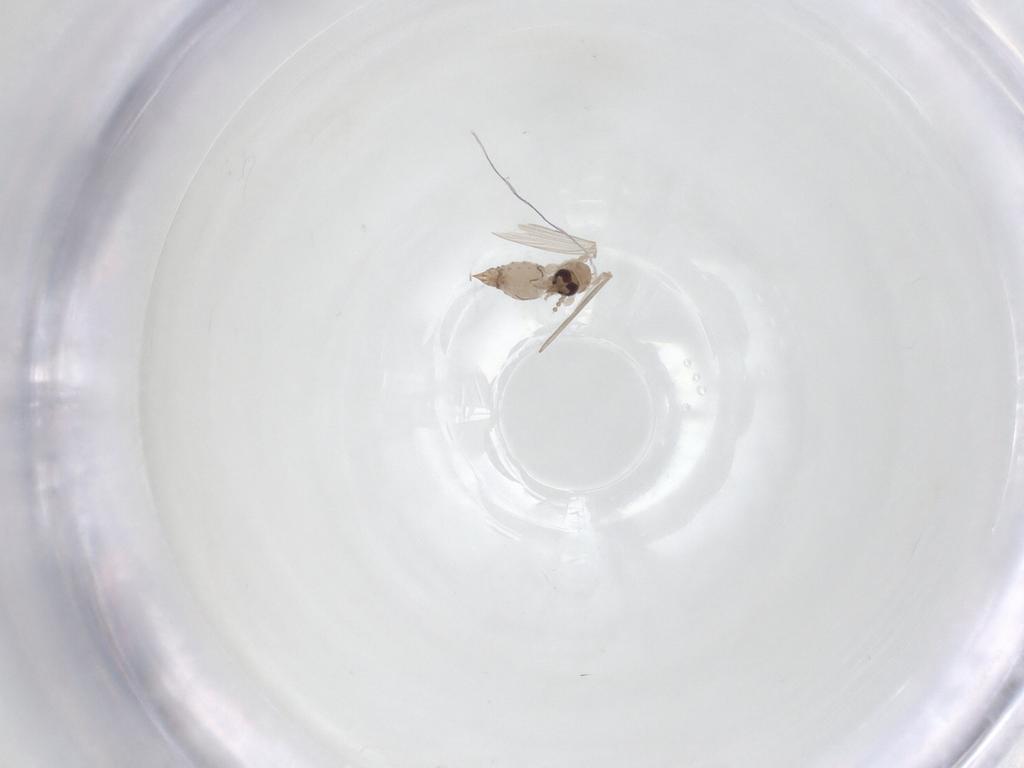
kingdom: Animalia
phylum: Arthropoda
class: Insecta
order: Diptera
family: Psychodidae
